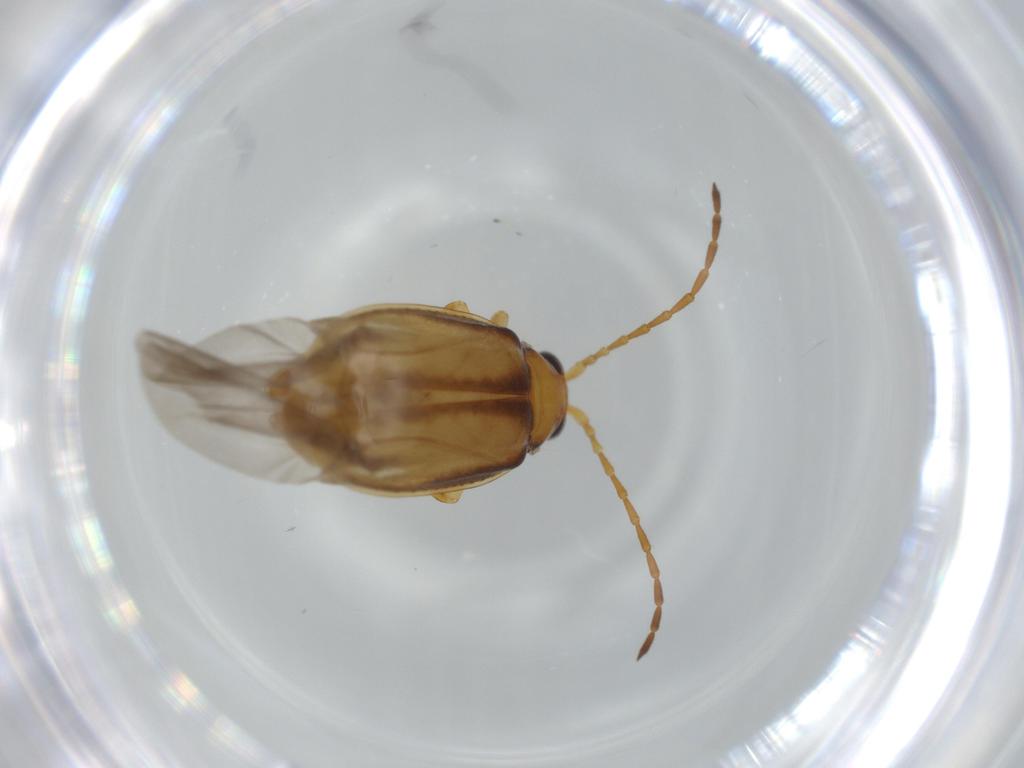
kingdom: Animalia
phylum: Arthropoda
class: Insecta
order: Coleoptera
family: Chrysomelidae
